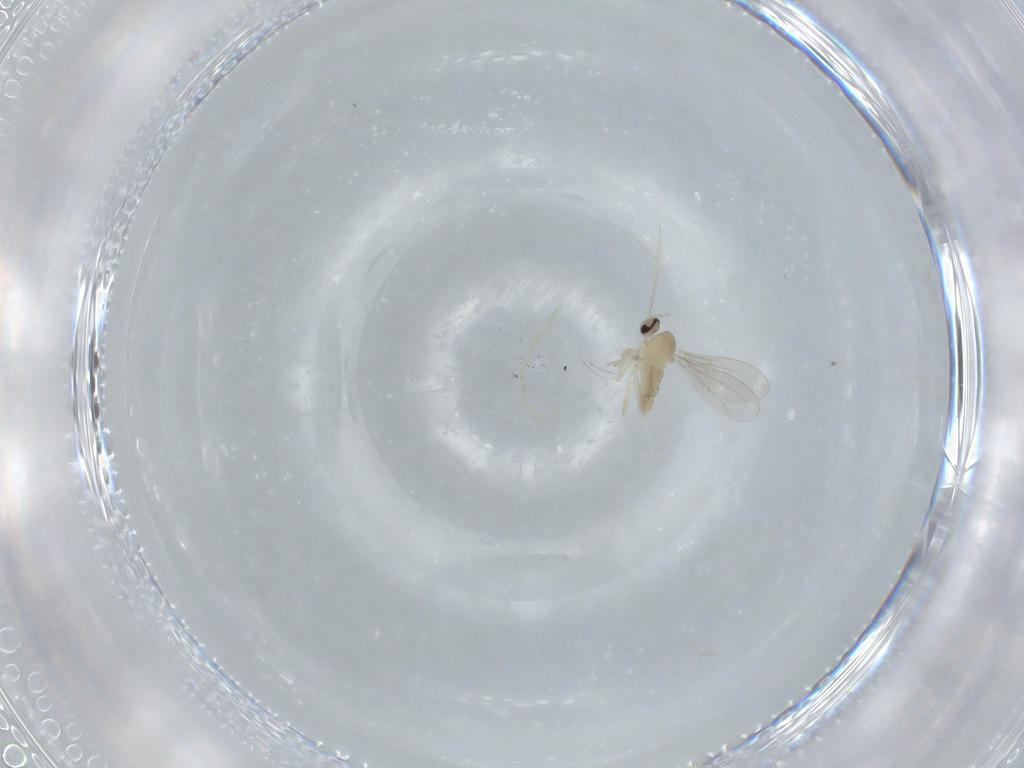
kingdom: Animalia
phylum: Arthropoda
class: Insecta
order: Diptera
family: Cecidomyiidae
